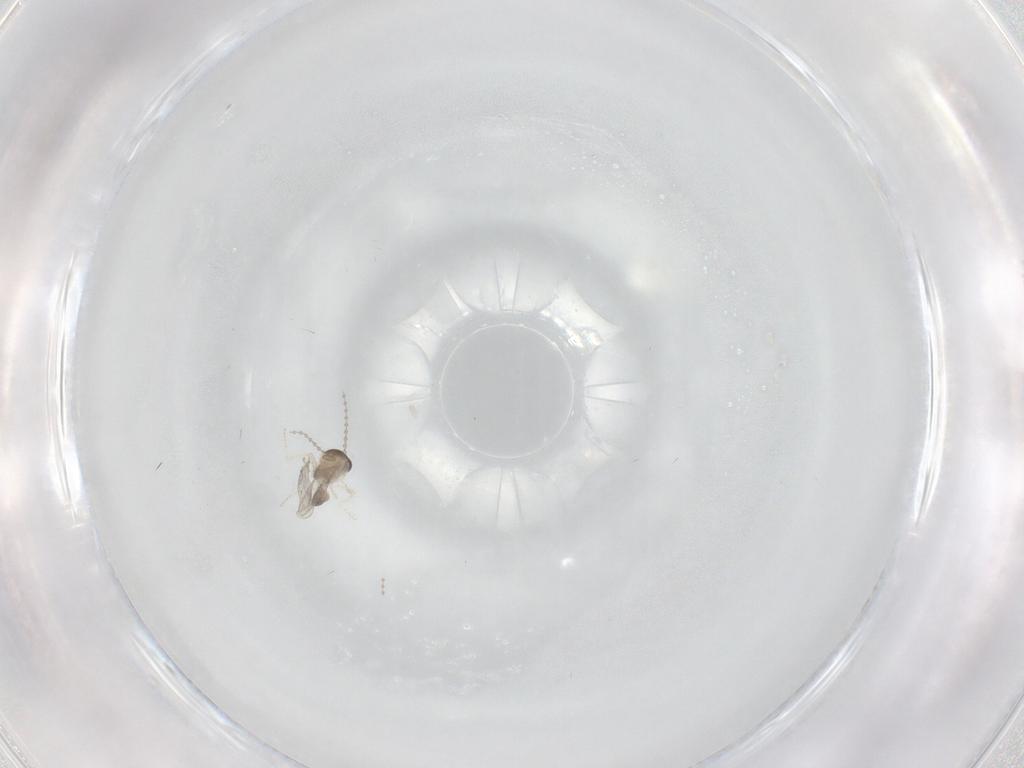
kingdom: Animalia
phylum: Arthropoda
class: Insecta
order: Diptera
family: Cecidomyiidae
